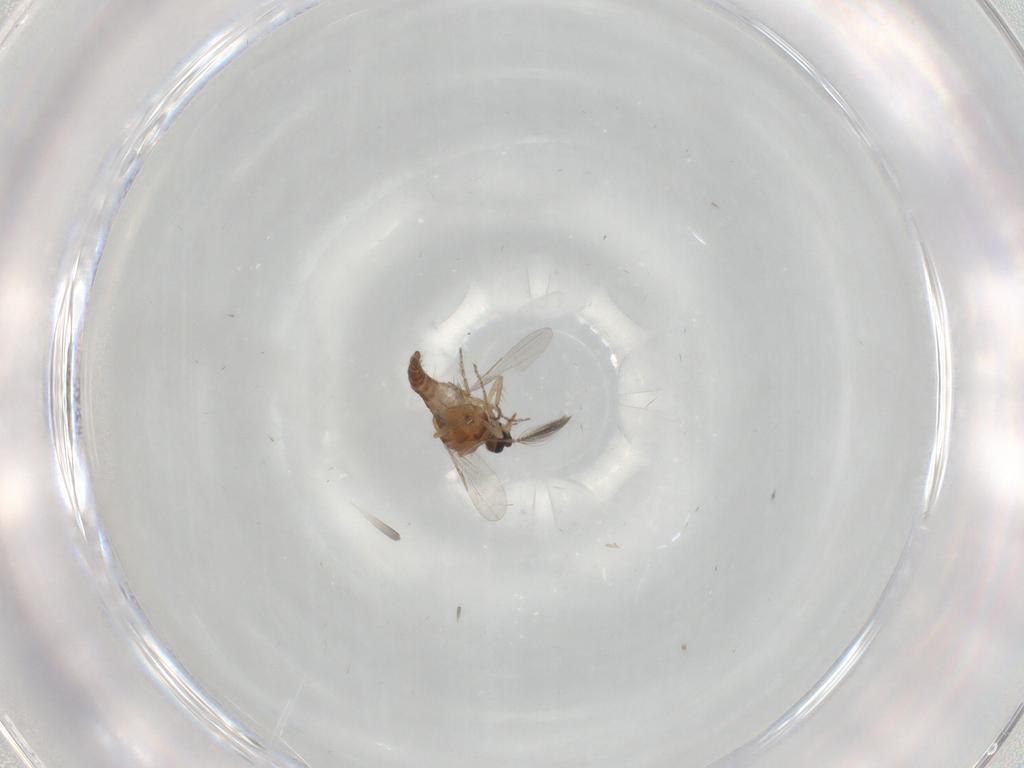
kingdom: Animalia
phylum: Arthropoda
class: Insecta
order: Diptera
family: Ceratopogonidae
